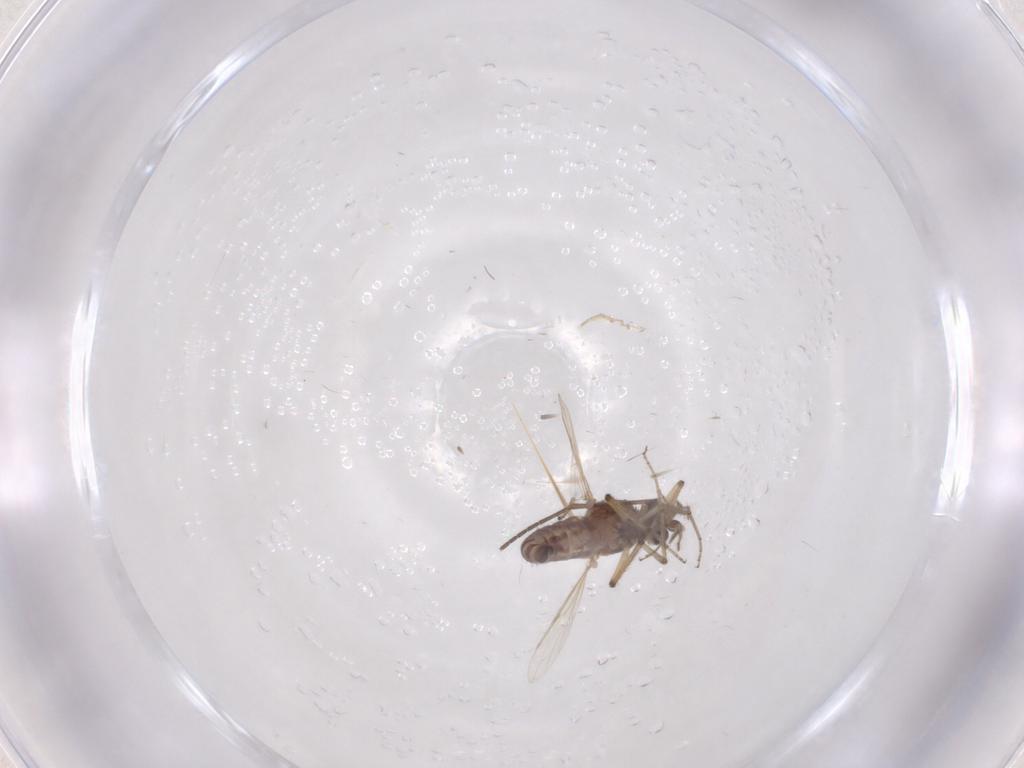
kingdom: Animalia
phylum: Arthropoda
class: Insecta
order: Diptera
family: Ceratopogonidae
